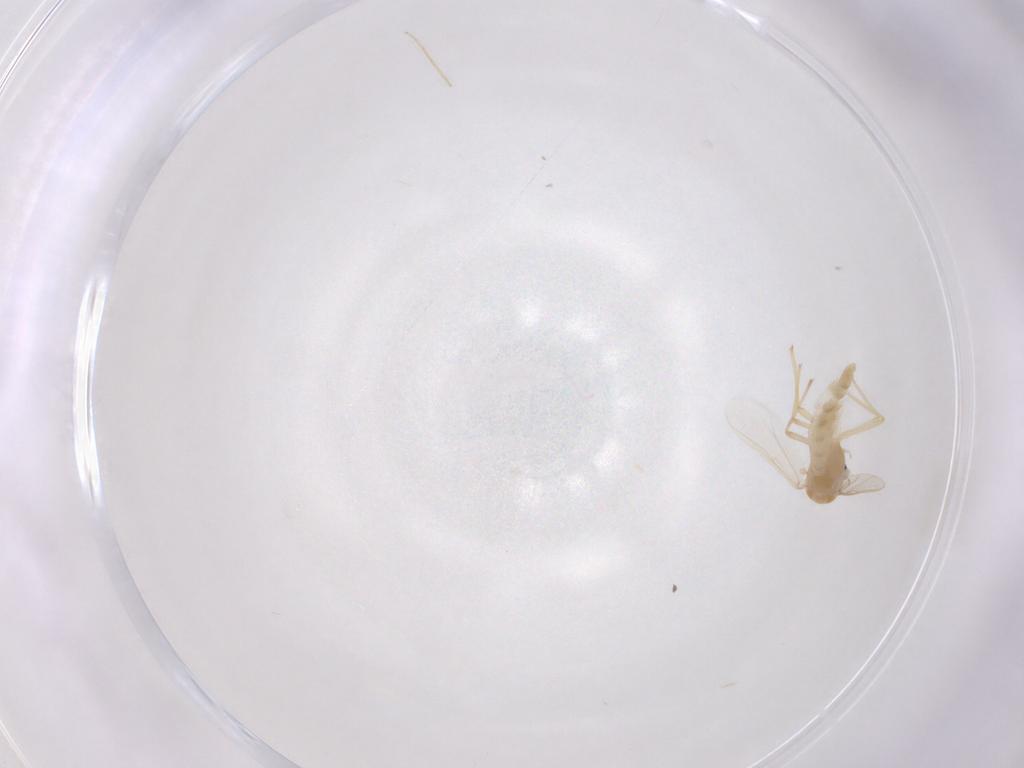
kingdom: Animalia
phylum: Arthropoda
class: Insecta
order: Diptera
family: Chironomidae
